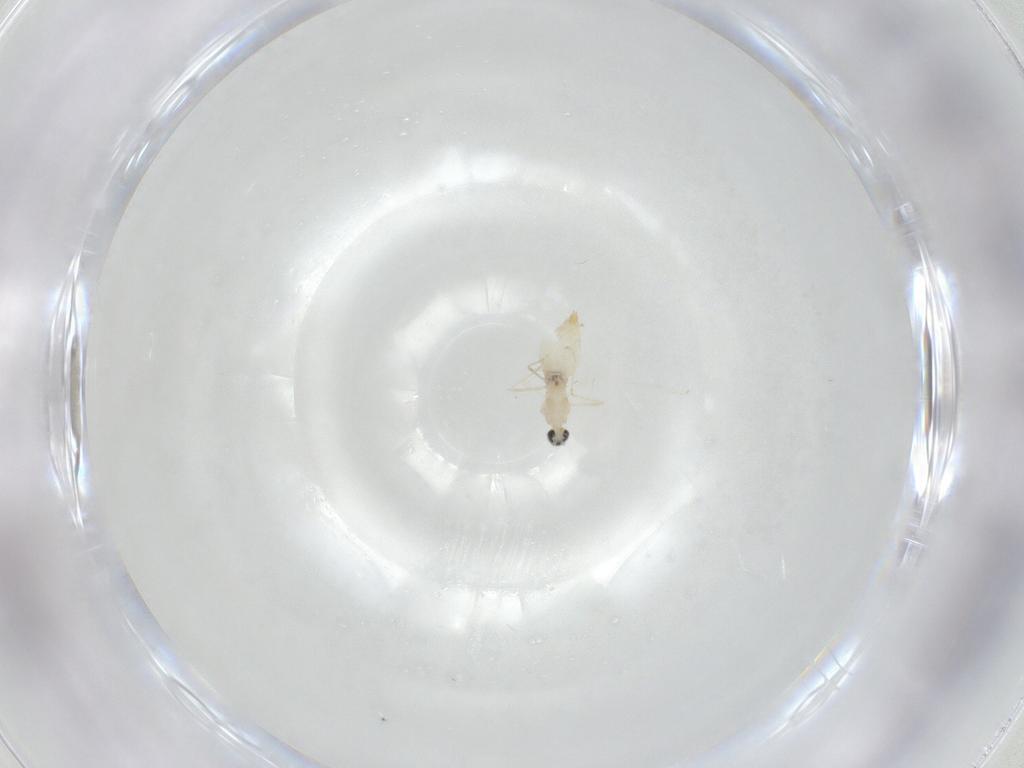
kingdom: Animalia
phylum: Arthropoda
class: Insecta
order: Diptera
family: Cecidomyiidae
